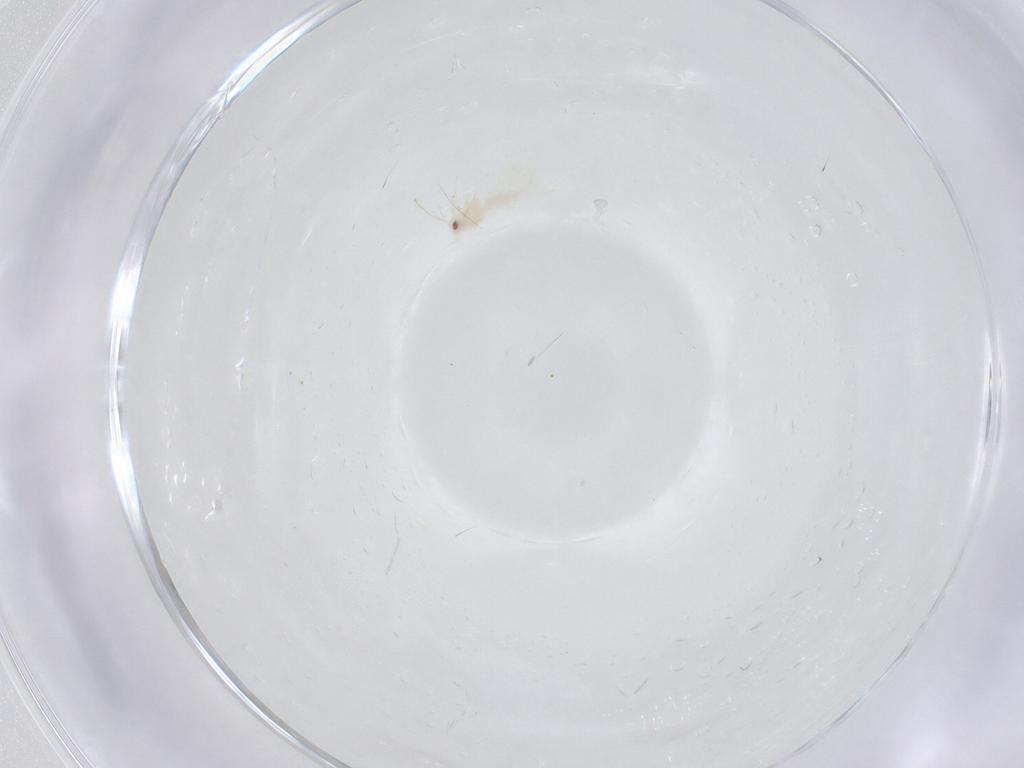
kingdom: Animalia
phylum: Arthropoda
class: Insecta
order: Hemiptera
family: Aleyrodidae
